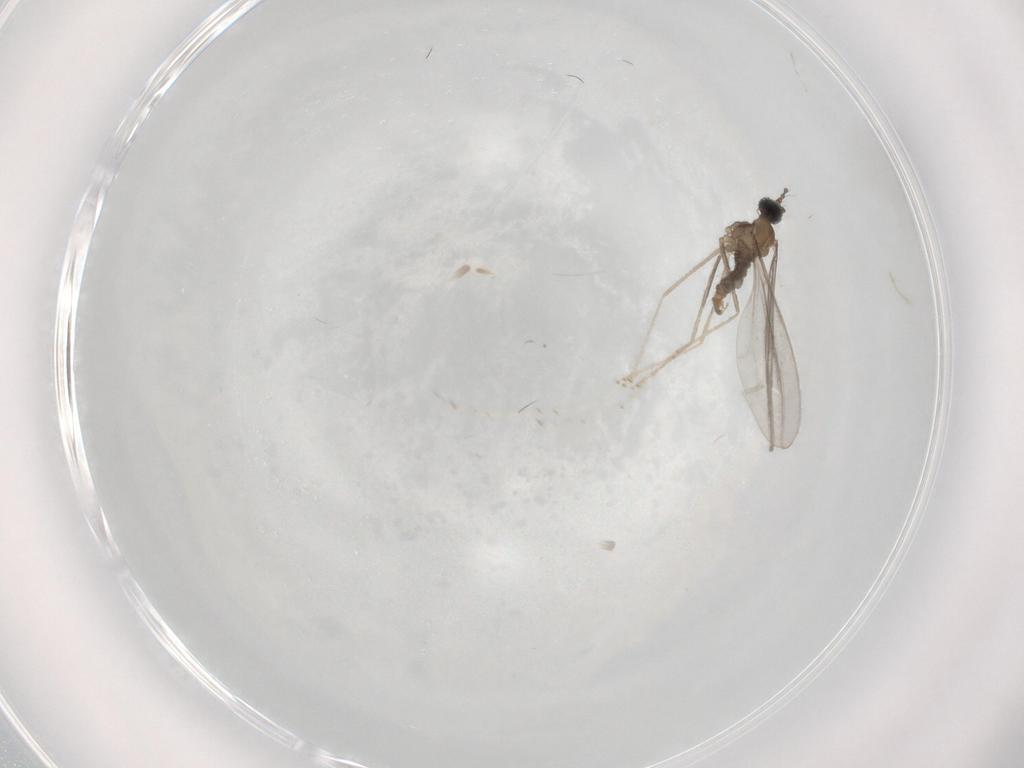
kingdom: Animalia
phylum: Arthropoda
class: Insecta
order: Diptera
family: Cecidomyiidae
